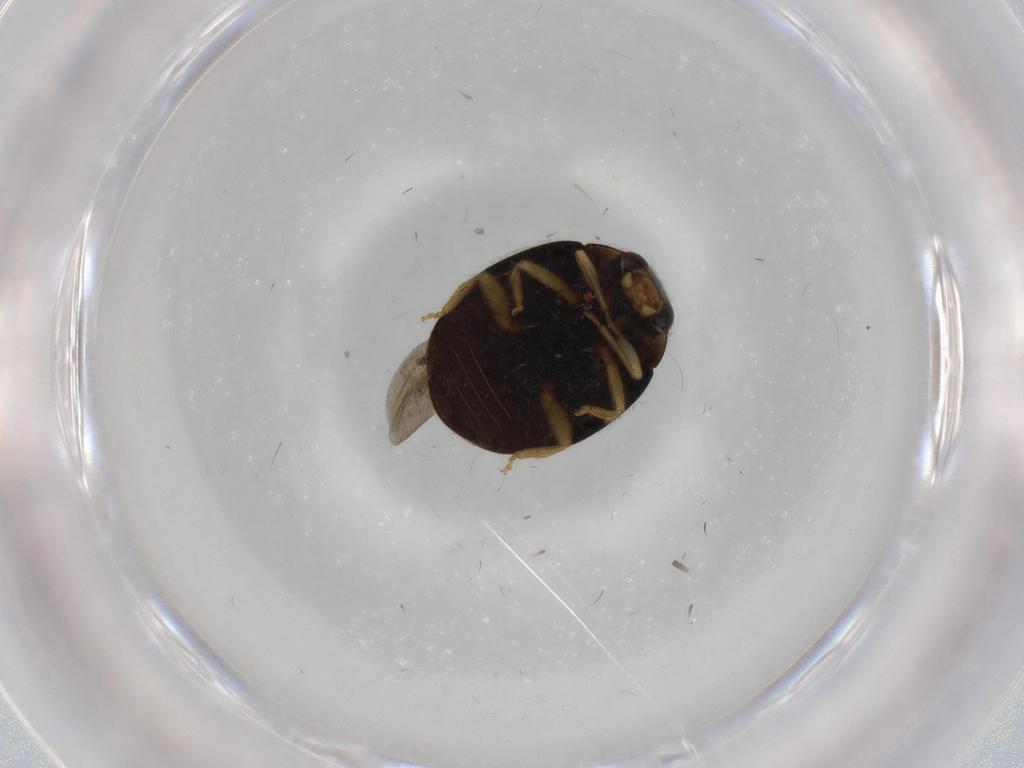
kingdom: Animalia
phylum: Arthropoda
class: Insecta
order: Coleoptera
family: Coccinellidae
